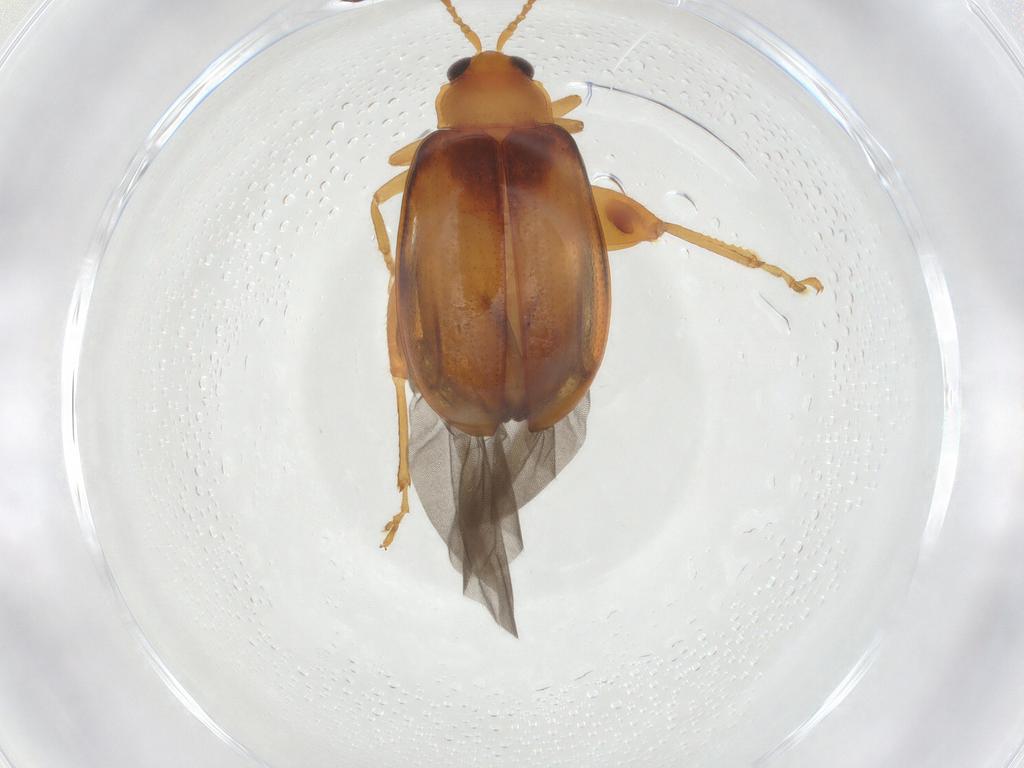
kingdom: Animalia
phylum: Arthropoda
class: Insecta
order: Coleoptera
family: Chrysomelidae
